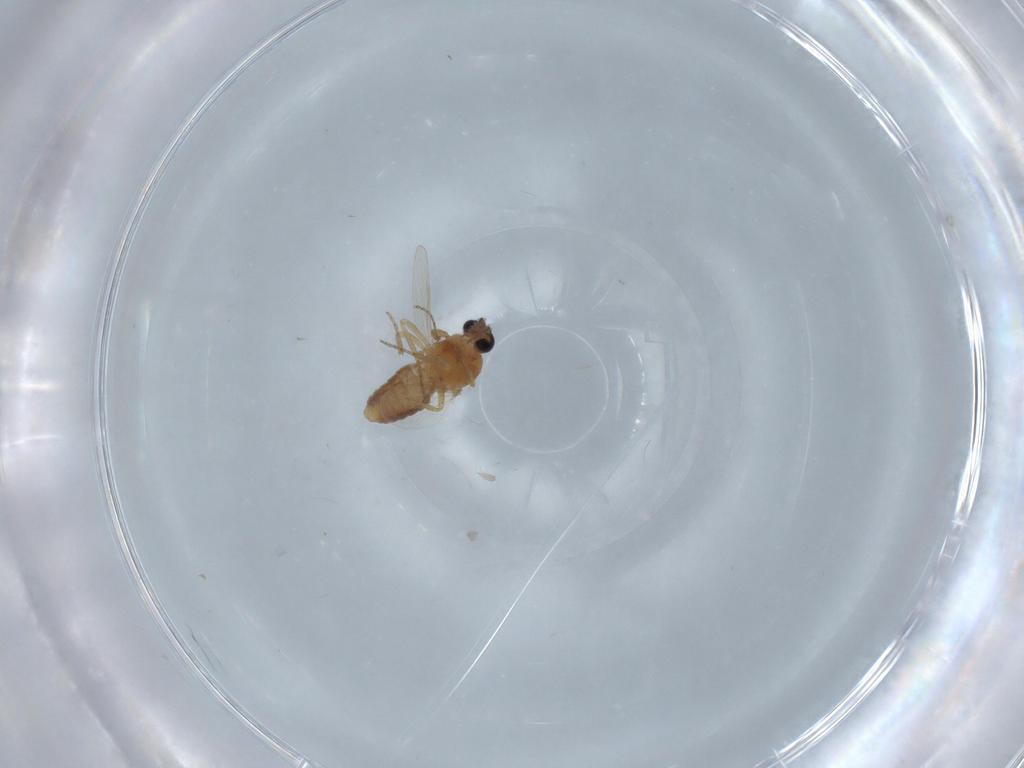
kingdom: Animalia
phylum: Arthropoda
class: Insecta
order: Diptera
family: Ceratopogonidae
